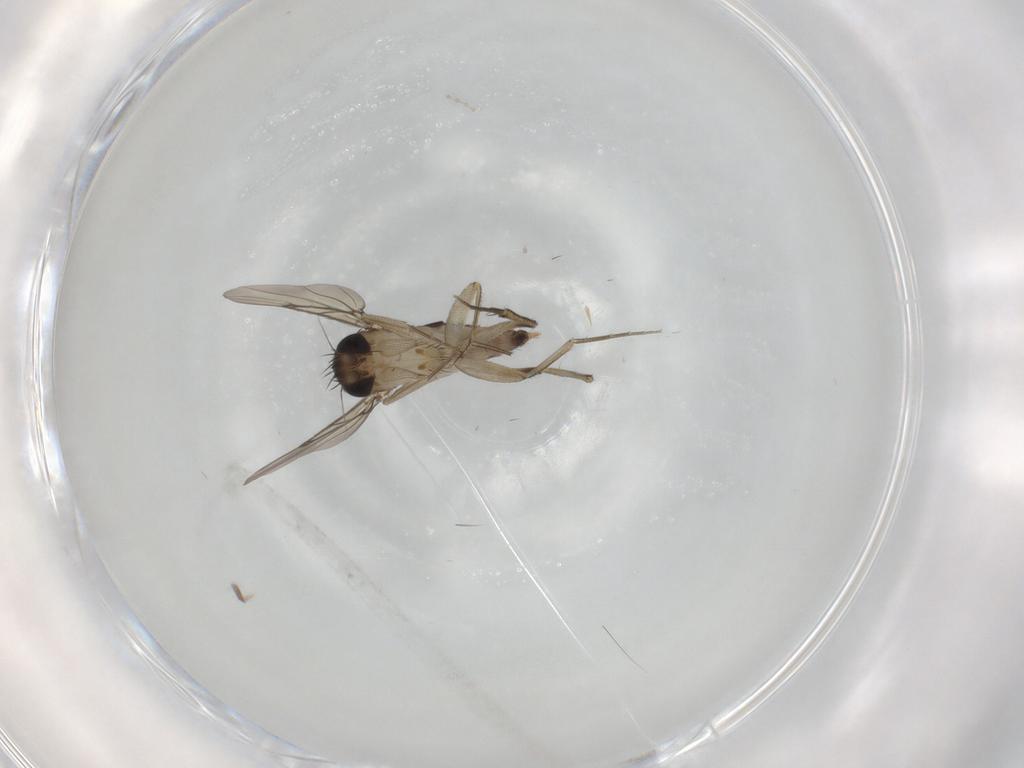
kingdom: Animalia
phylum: Arthropoda
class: Insecta
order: Diptera
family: Phoridae
